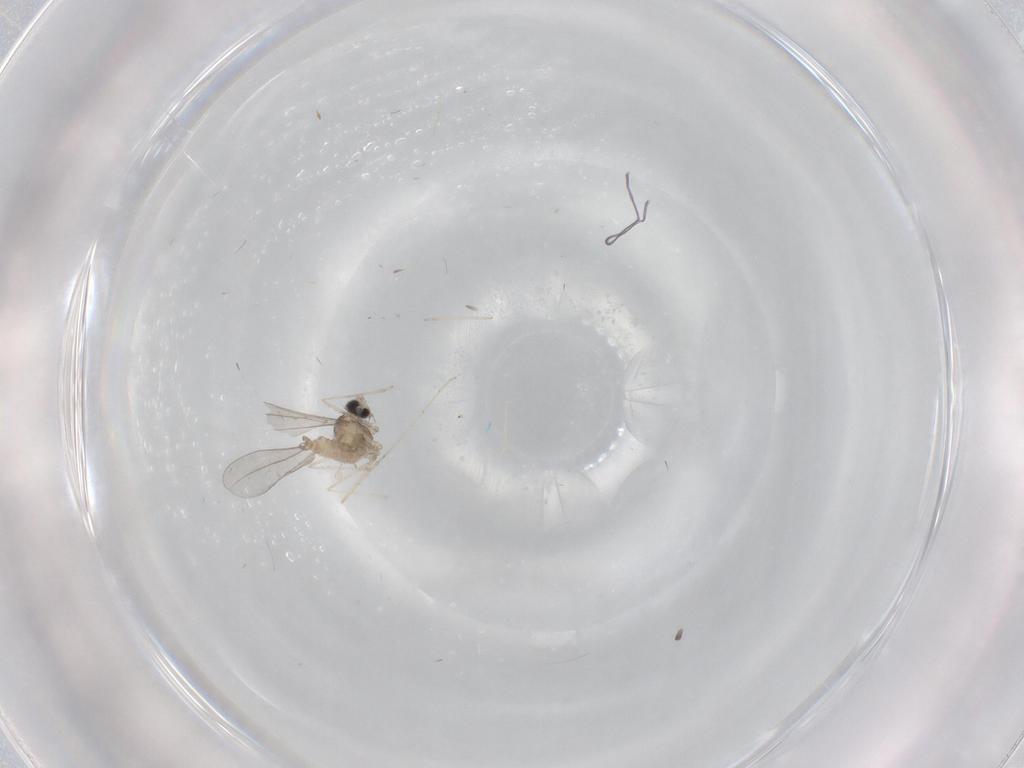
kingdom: Animalia
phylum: Arthropoda
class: Insecta
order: Diptera
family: Cecidomyiidae
